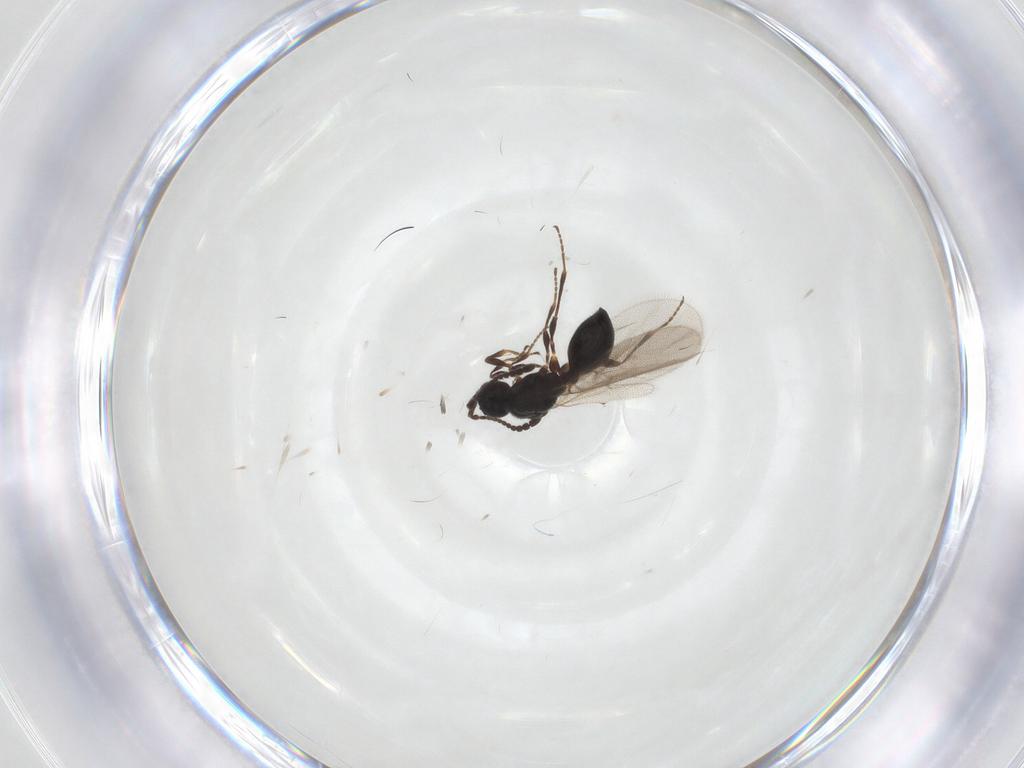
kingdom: Animalia
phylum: Arthropoda
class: Insecta
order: Hymenoptera
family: Diapriidae
